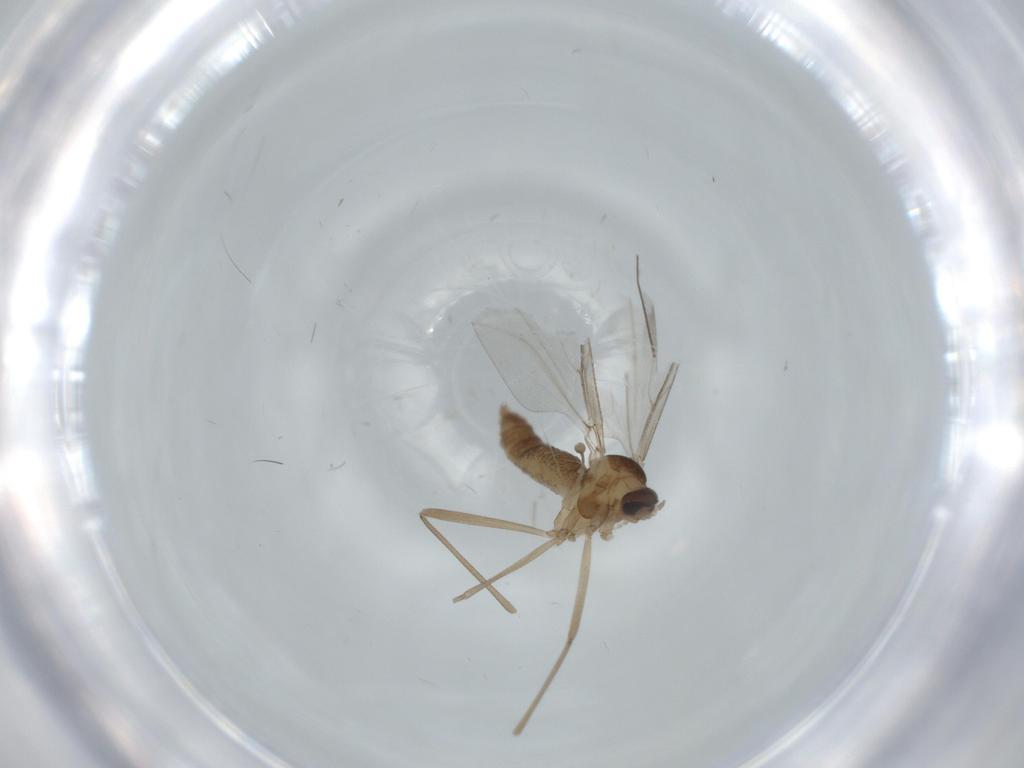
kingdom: Animalia
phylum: Arthropoda
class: Insecta
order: Diptera
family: Cecidomyiidae
